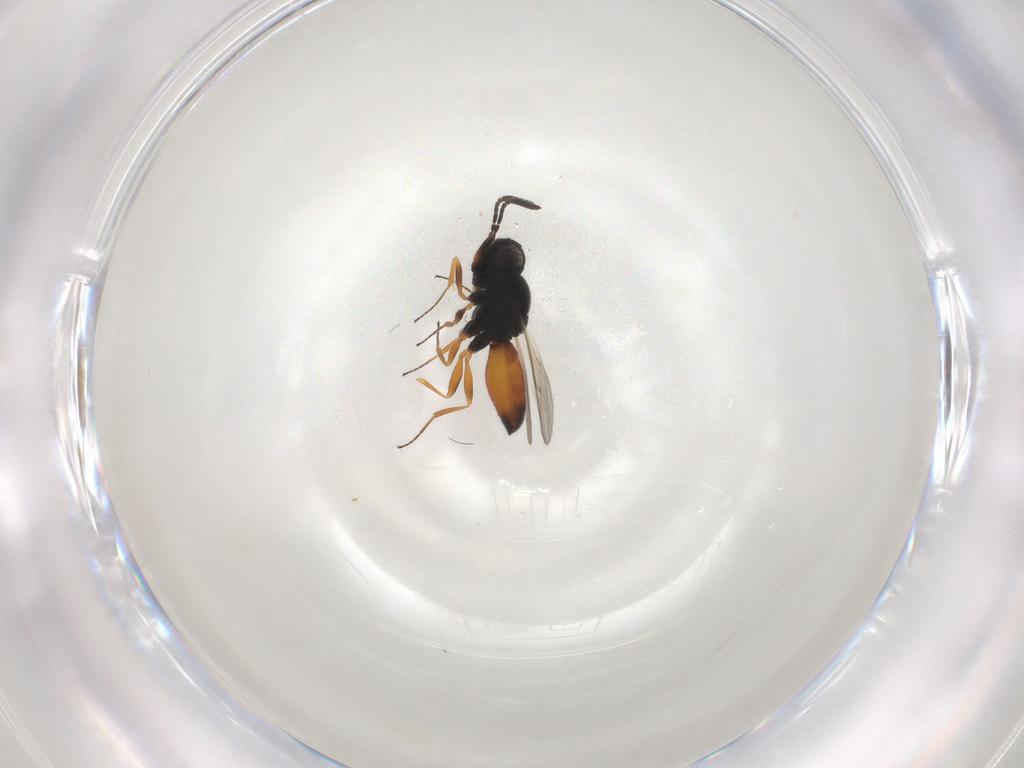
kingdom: Animalia
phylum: Arthropoda
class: Insecta
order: Hymenoptera
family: Scelionidae
